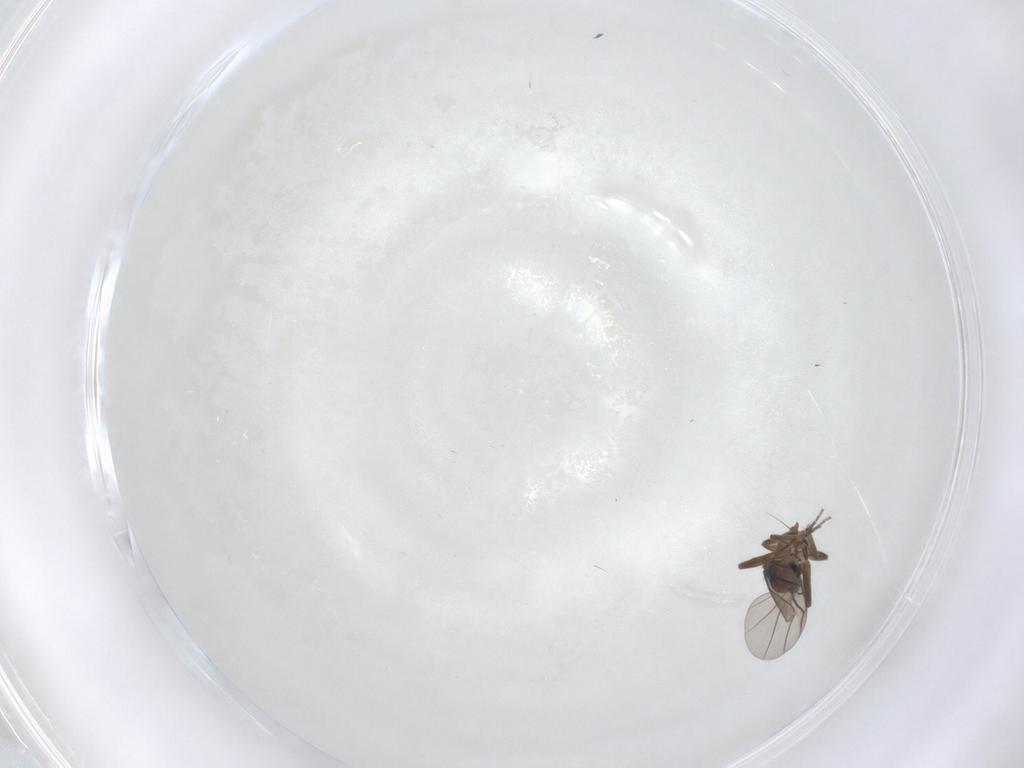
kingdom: Animalia
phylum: Arthropoda
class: Insecta
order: Diptera
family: Phoridae
